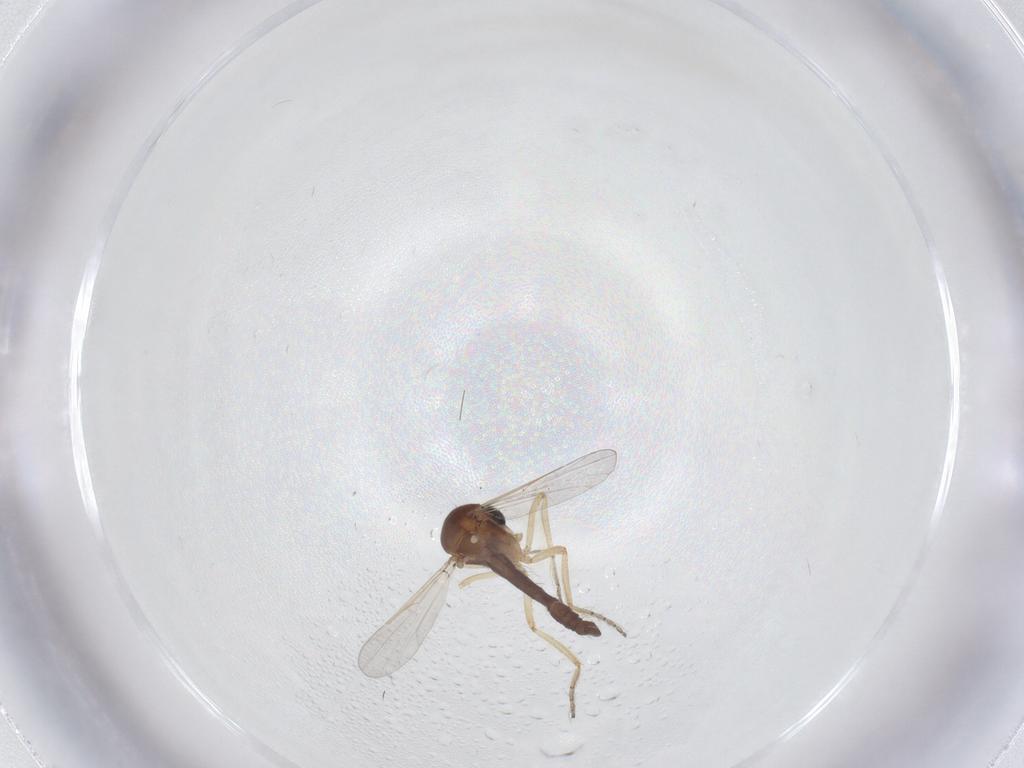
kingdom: Animalia
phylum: Arthropoda
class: Insecta
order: Diptera
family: Ceratopogonidae
